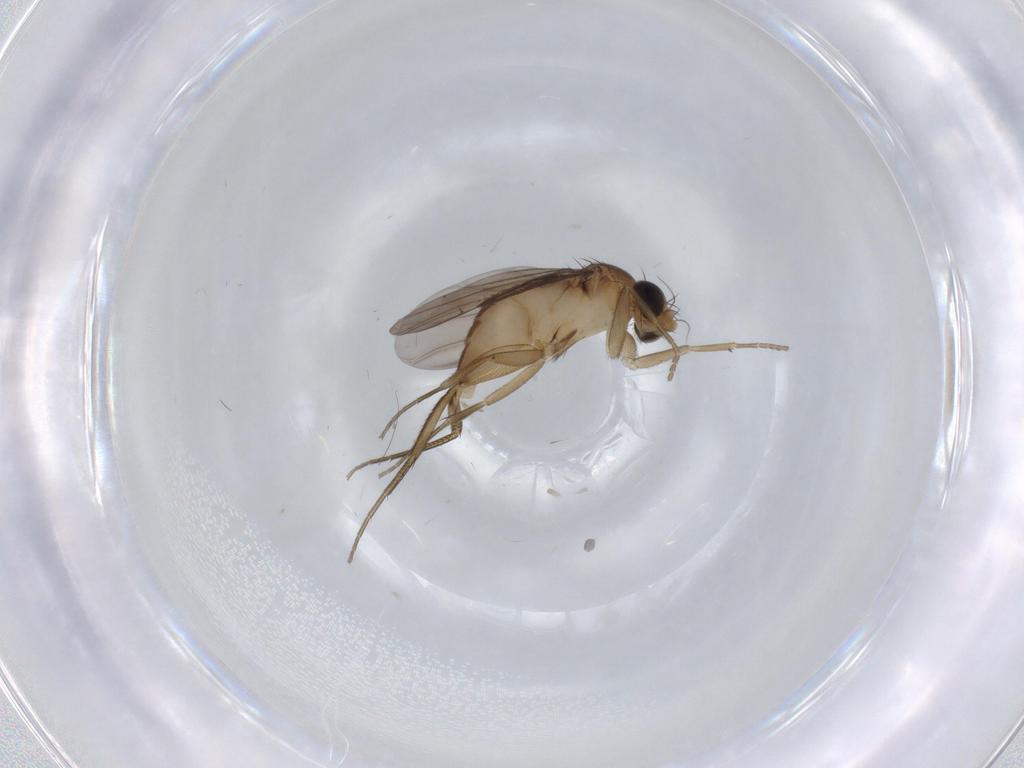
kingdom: Animalia
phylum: Arthropoda
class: Insecta
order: Diptera
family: Phoridae
